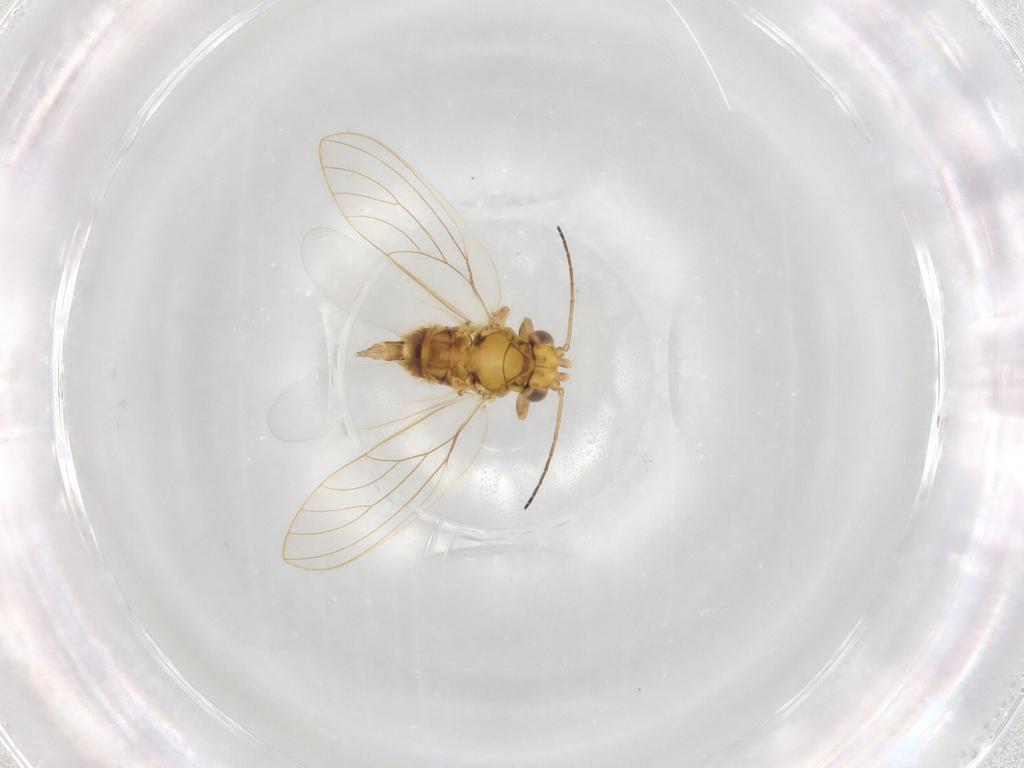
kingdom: Animalia
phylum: Arthropoda
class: Insecta
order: Hemiptera
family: Aphalaridae
